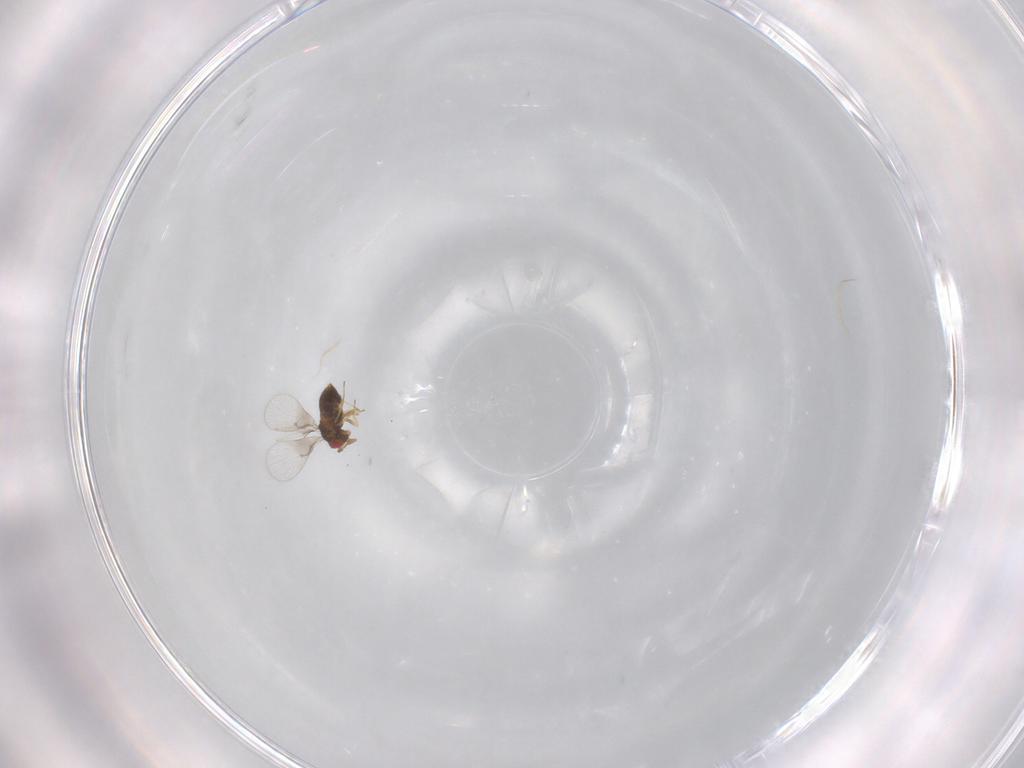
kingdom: Animalia
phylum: Arthropoda
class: Insecta
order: Hymenoptera
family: Trichogrammatidae
